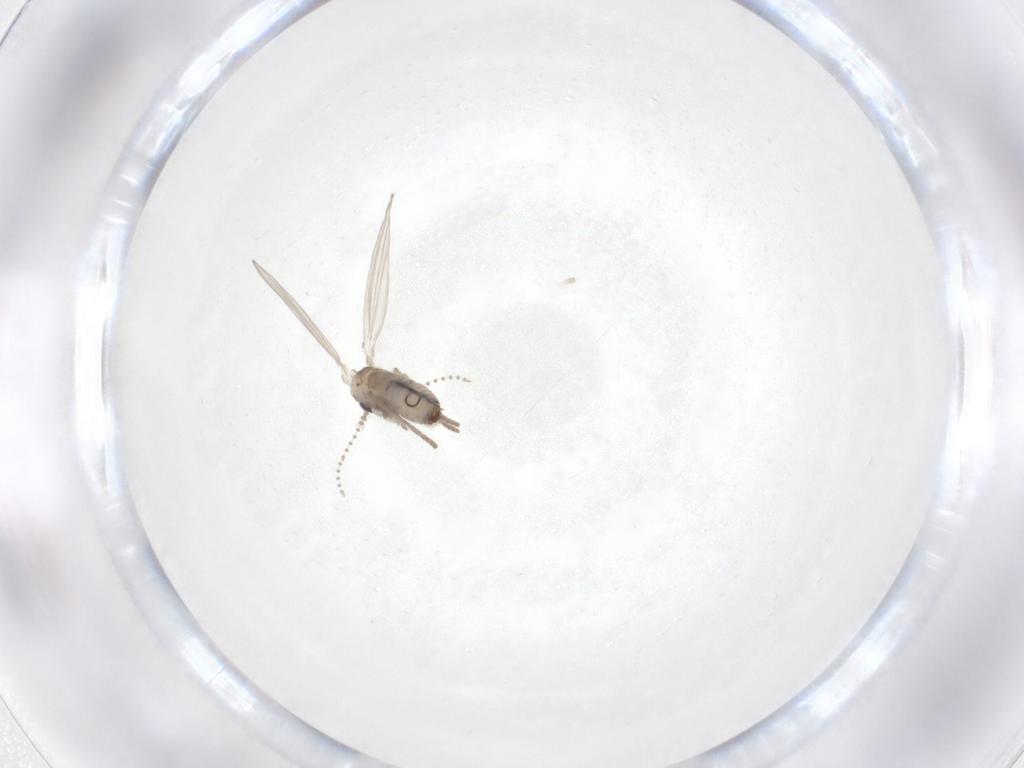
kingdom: Animalia
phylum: Arthropoda
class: Insecta
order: Diptera
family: Psychodidae
